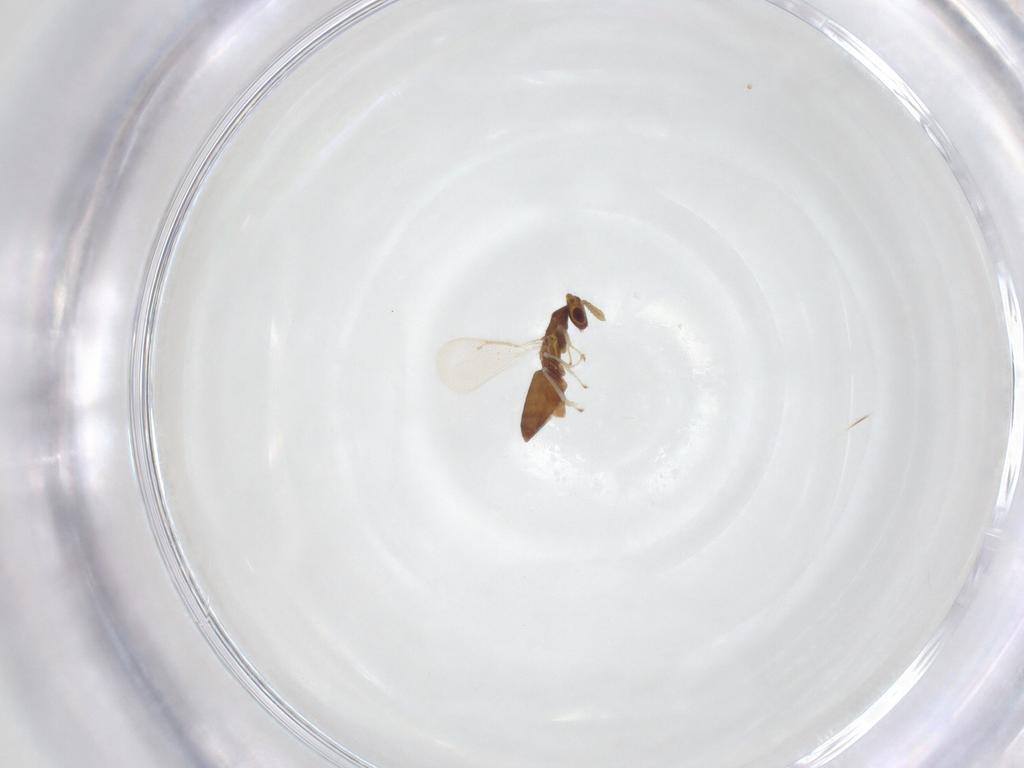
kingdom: Animalia
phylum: Arthropoda
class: Insecta
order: Hymenoptera
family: Eulophidae
